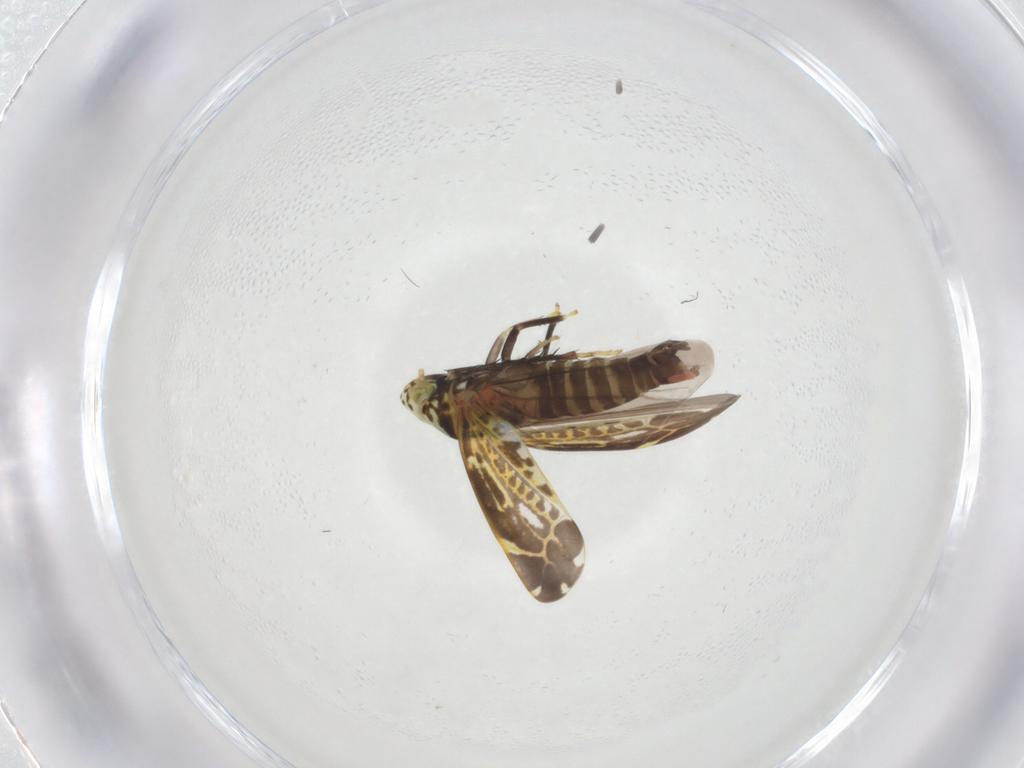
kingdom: Animalia
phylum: Arthropoda
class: Insecta
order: Hemiptera
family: Cicadellidae
